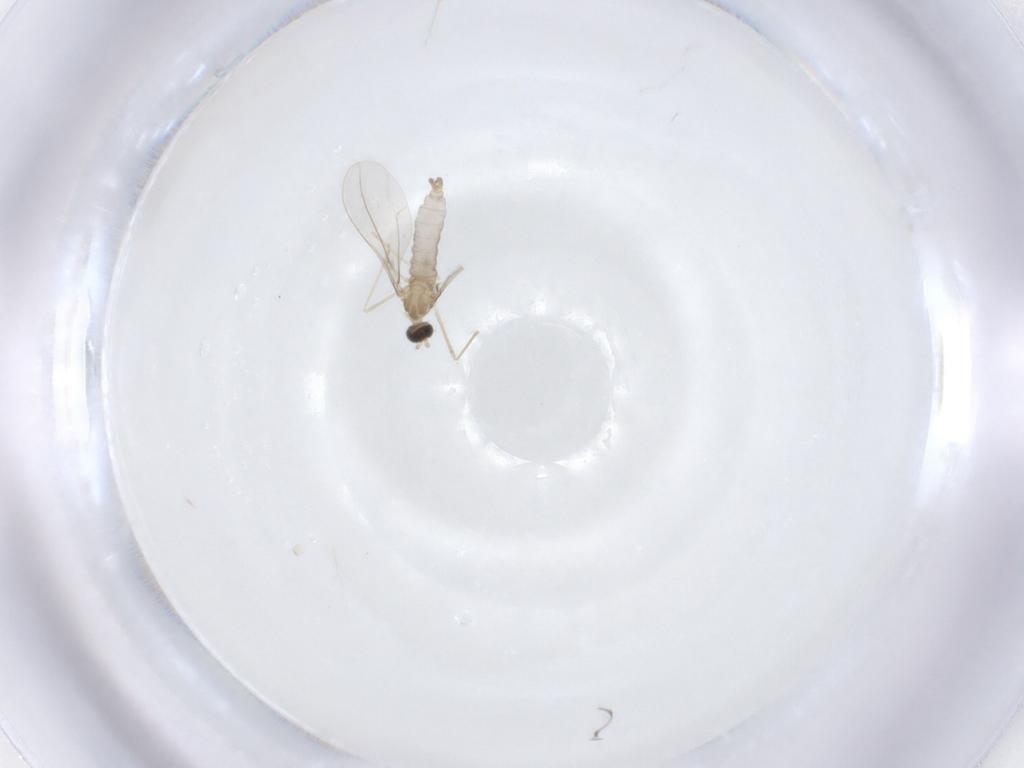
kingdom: Animalia
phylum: Arthropoda
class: Insecta
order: Diptera
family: Cecidomyiidae
